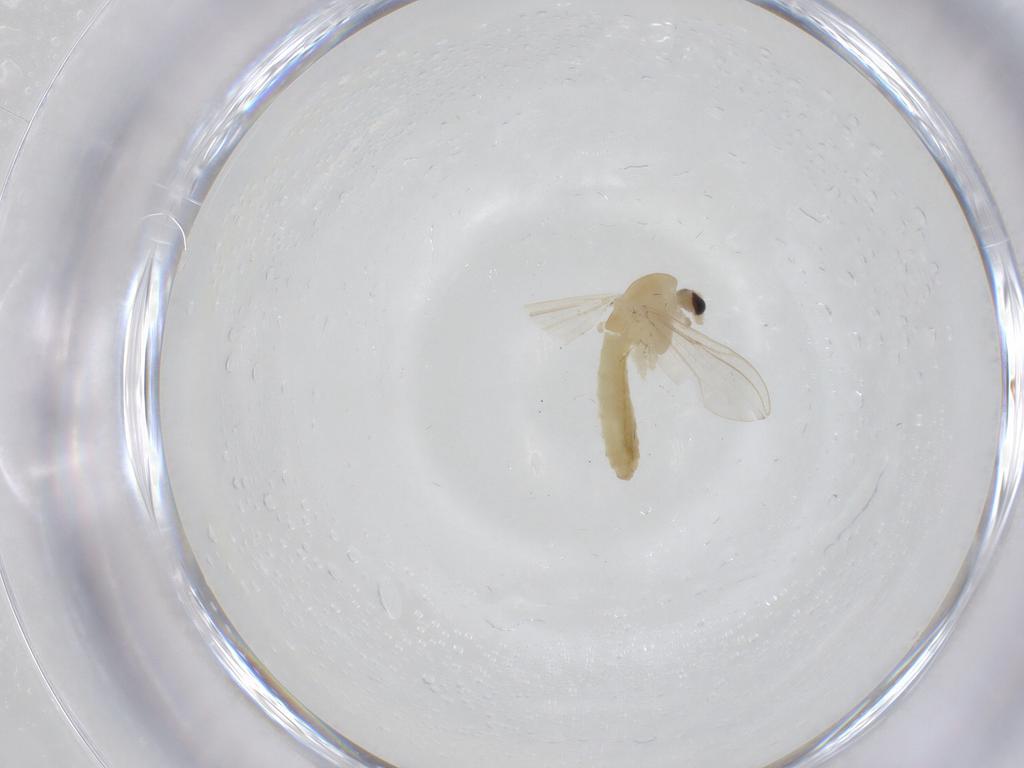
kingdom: Animalia
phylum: Arthropoda
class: Insecta
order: Diptera
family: Chironomidae
